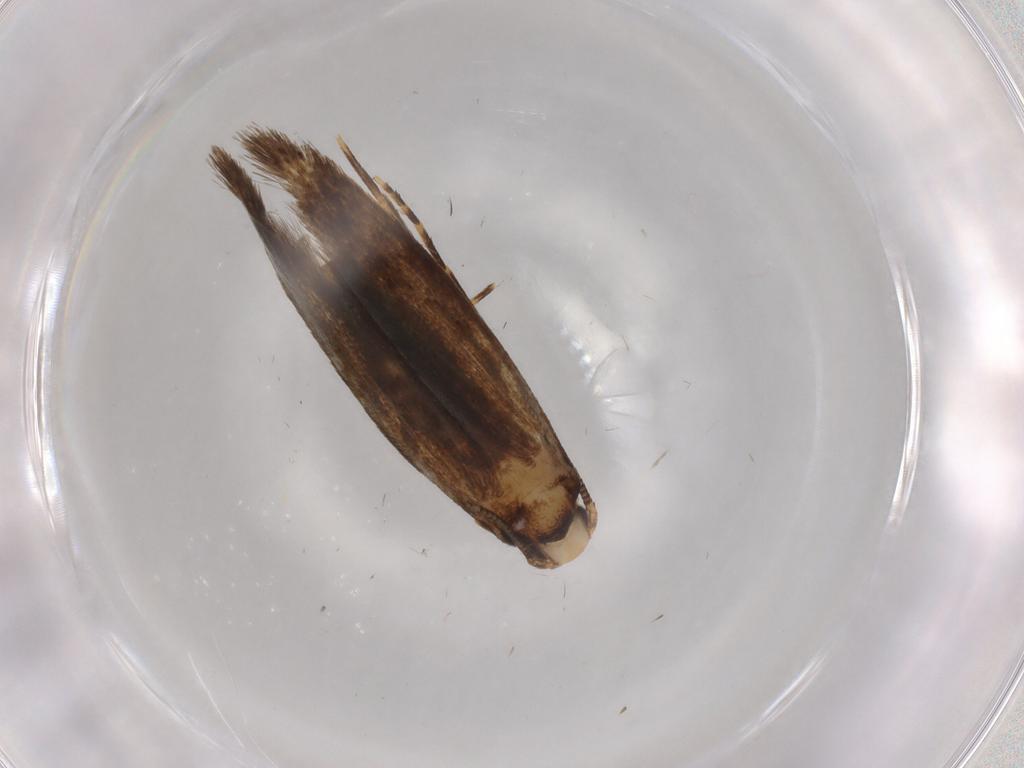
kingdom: Animalia
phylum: Arthropoda
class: Insecta
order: Lepidoptera
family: Tineidae
